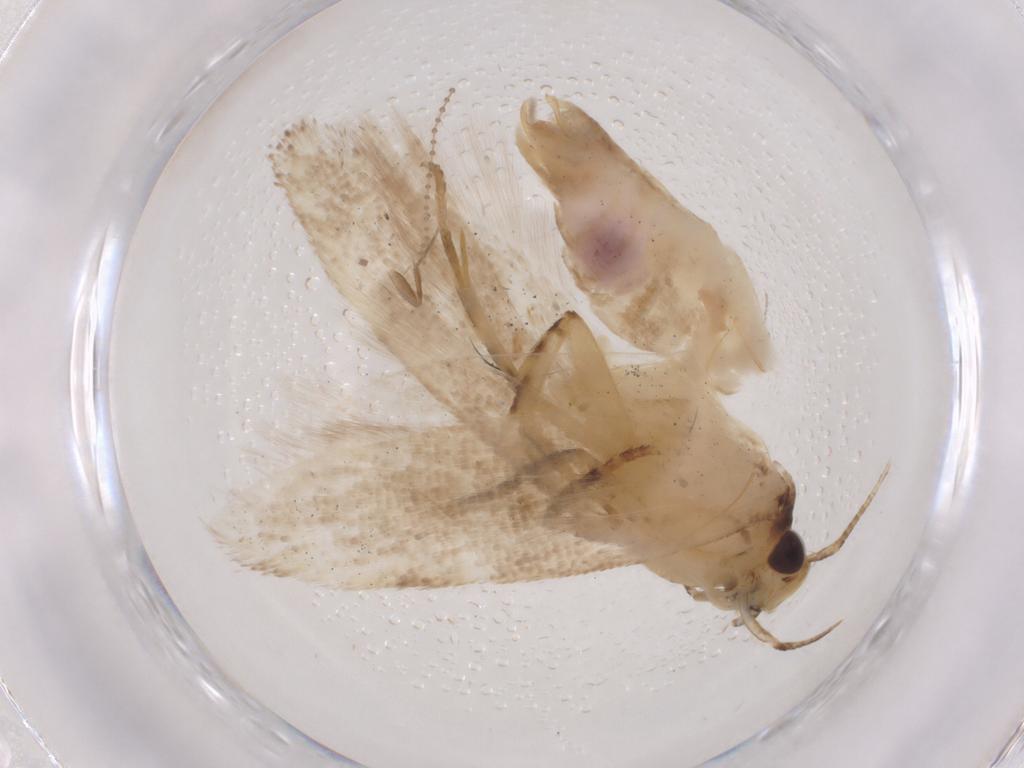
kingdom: Animalia
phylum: Arthropoda
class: Insecta
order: Lepidoptera
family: Gelechiidae
